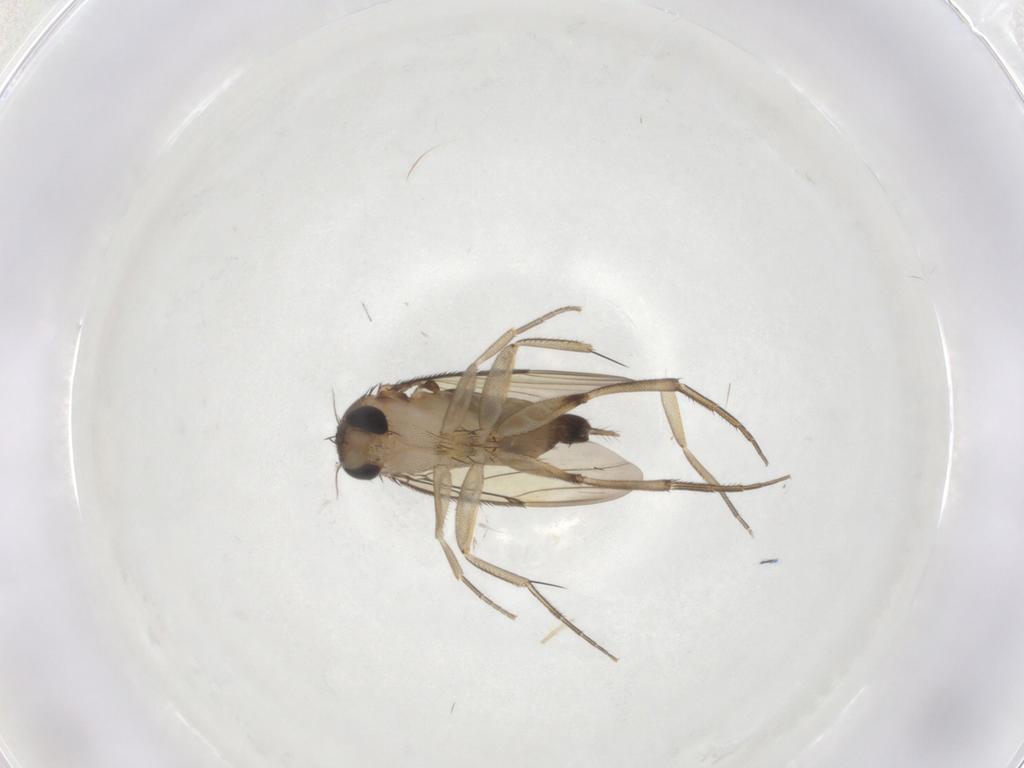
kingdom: Animalia
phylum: Arthropoda
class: Insecta
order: Diptera
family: Phoridae
